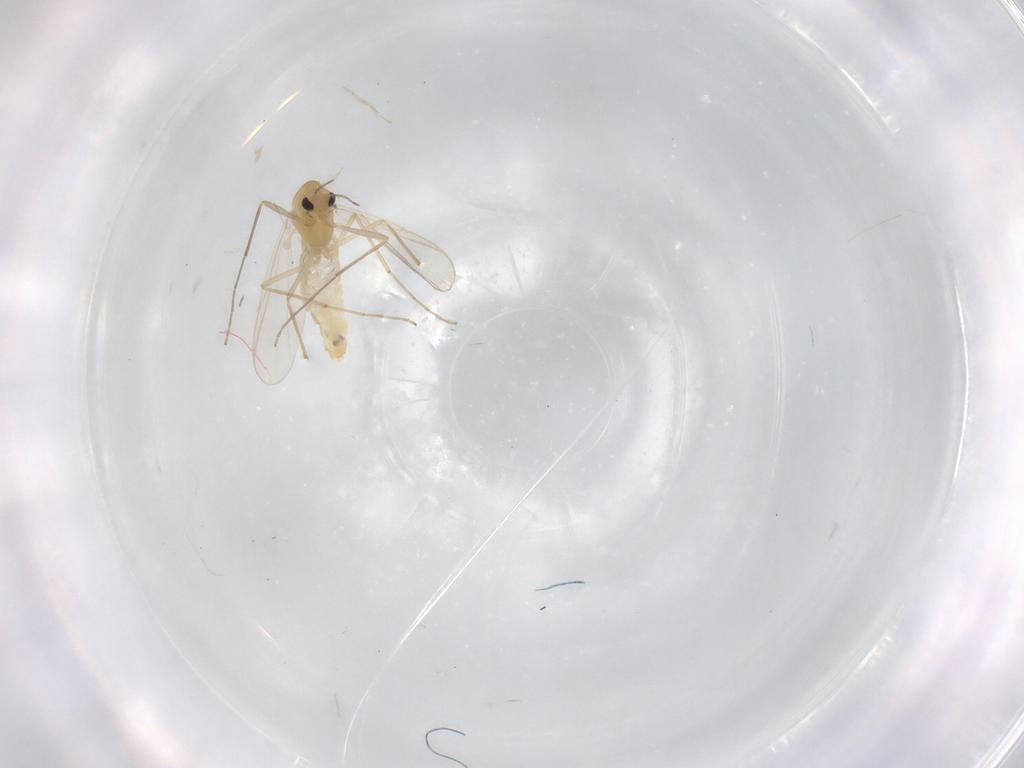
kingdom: Animalia
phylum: Arthropoda
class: Insecta
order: Diptera
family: Chironomidae
